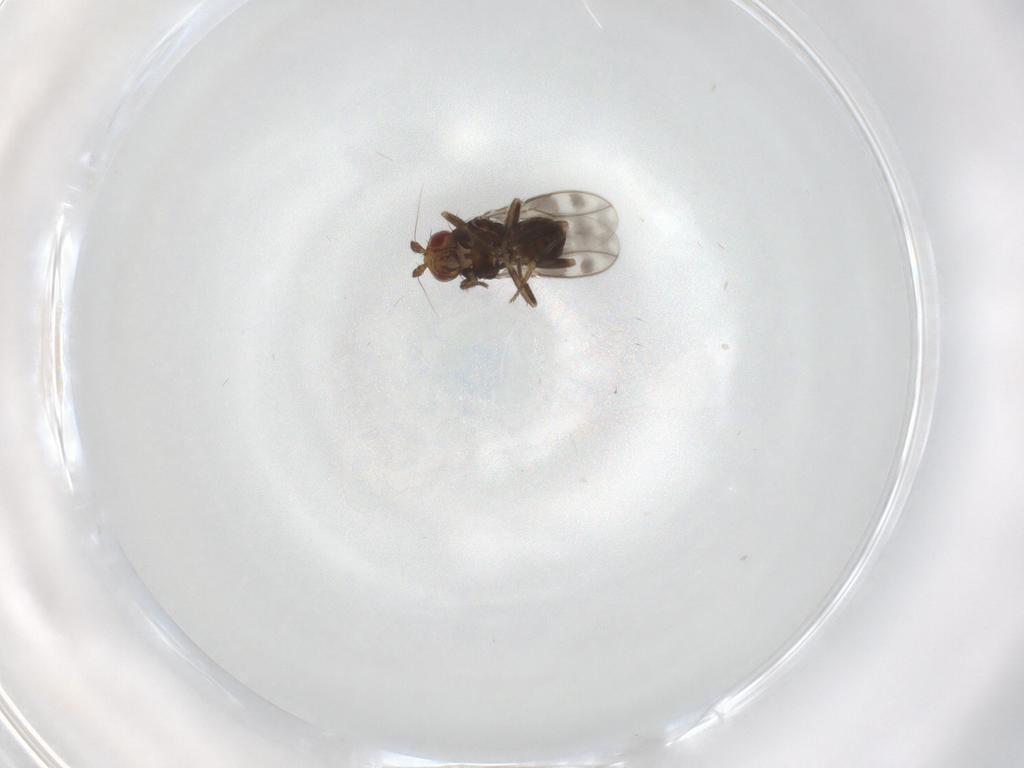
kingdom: Animalia
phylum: Arthropoda
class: Insecta
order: Diptera
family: Sphaeroceridae
